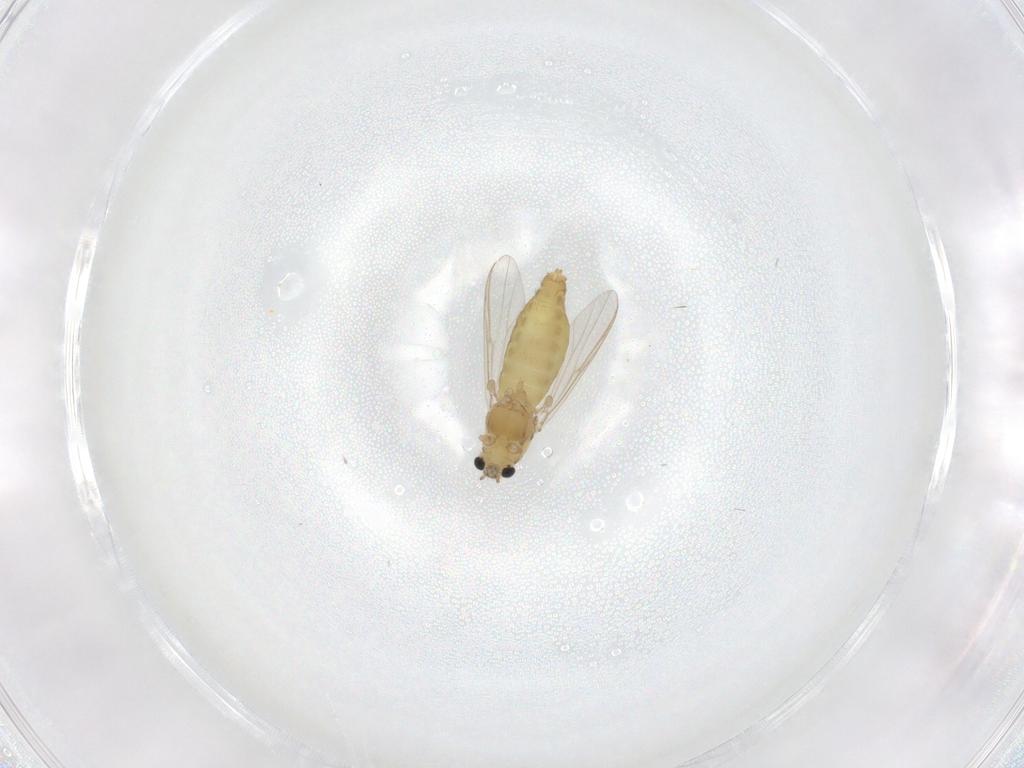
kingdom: Animalia
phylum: Arthropoda
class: Insecta
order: Diptera
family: Chironomidae
